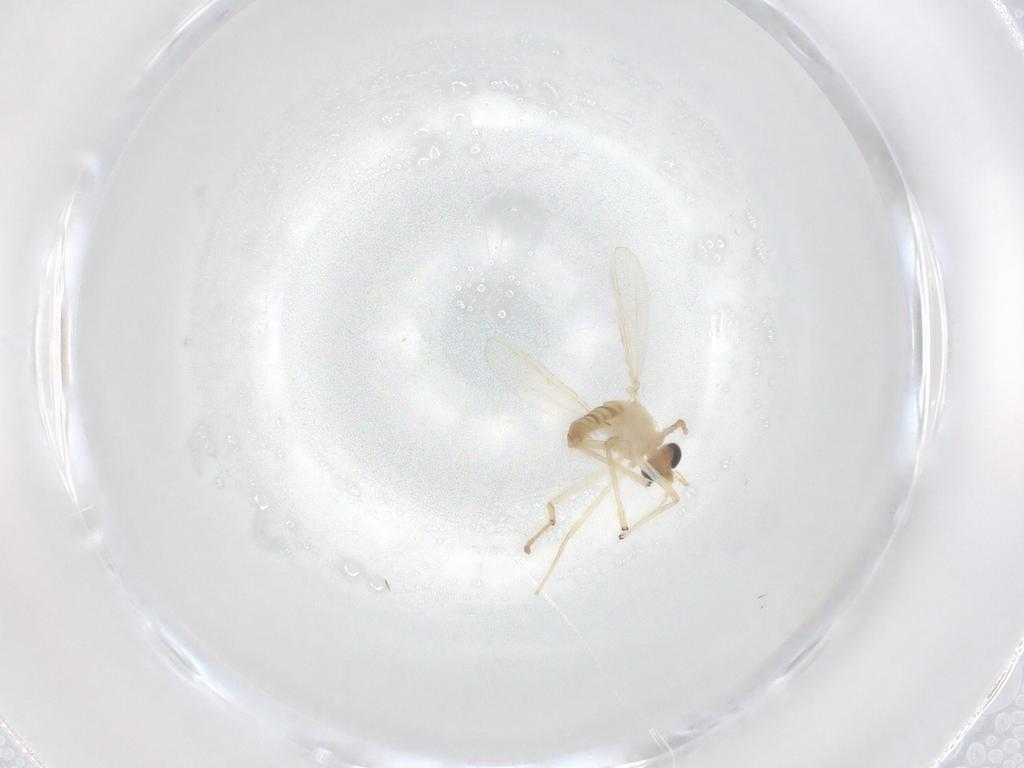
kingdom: Animalia
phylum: Arthropoda
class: Insecta
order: Diptera
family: Chironomidae
